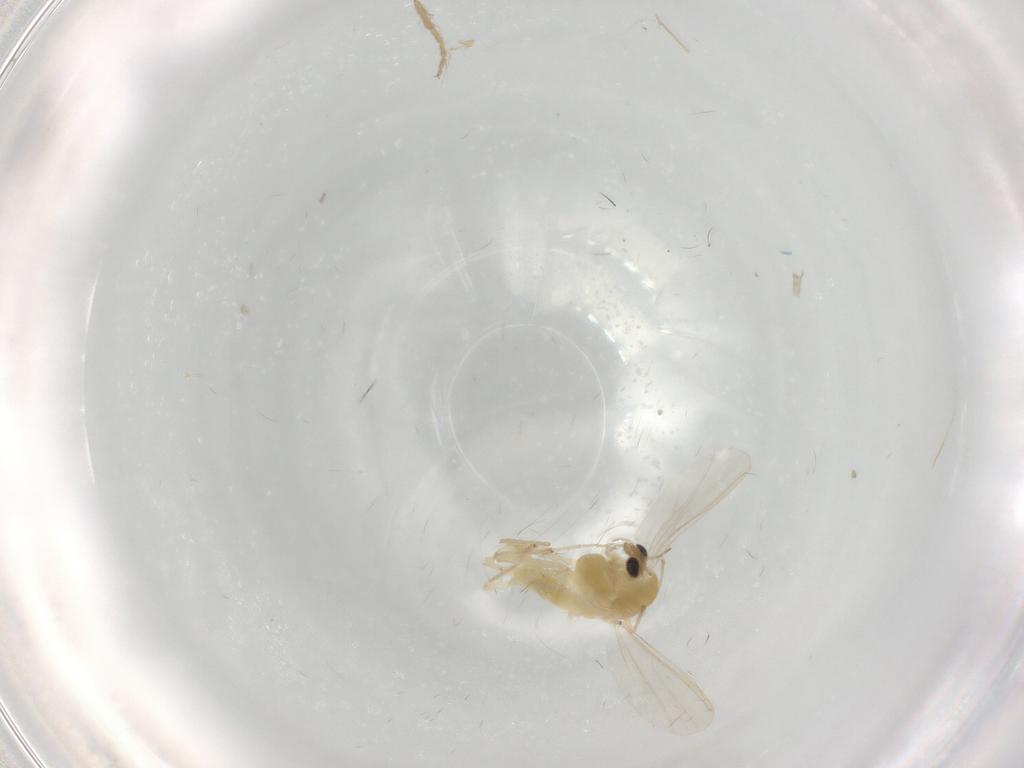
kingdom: Animalia
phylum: Arthropoda
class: Insecta
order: Diptera
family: Chironomidae
